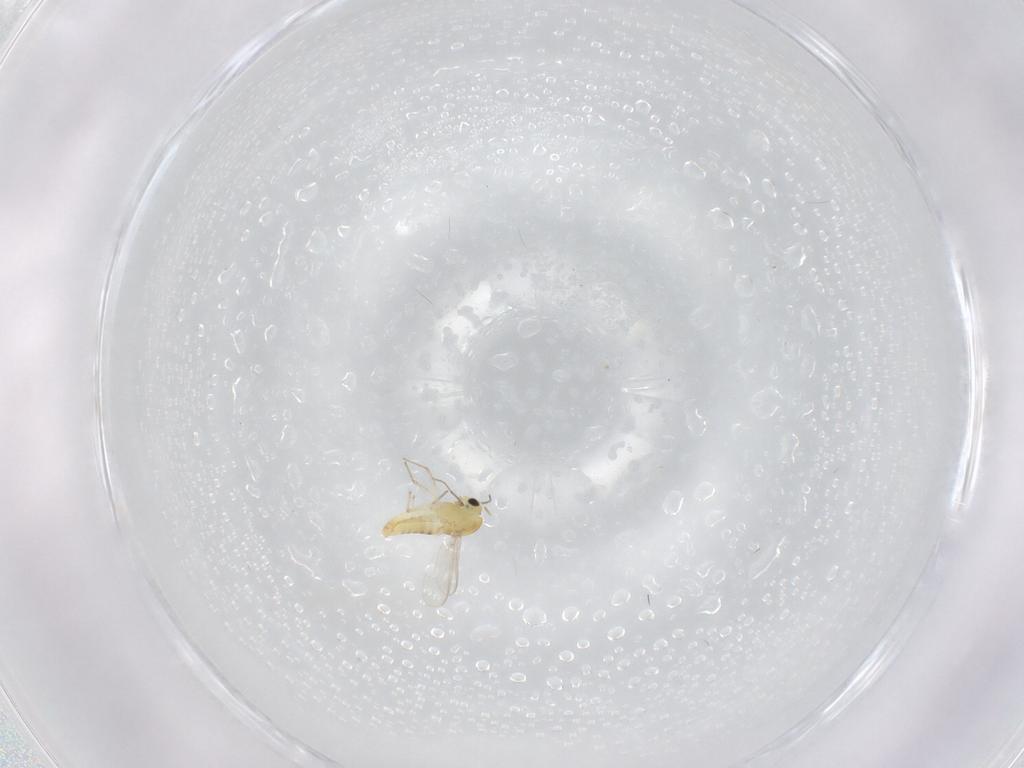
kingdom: Animalia
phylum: Arthropoda
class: Insecta
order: Diptera
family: Chironomidae
